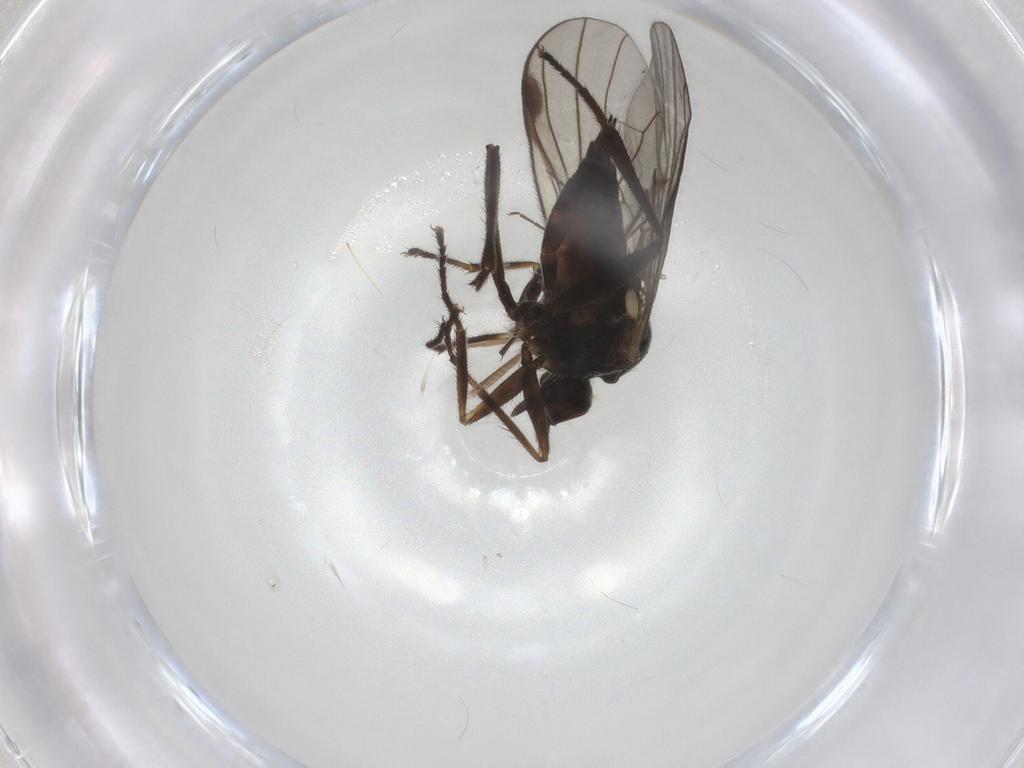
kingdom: Animalia
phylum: Arthropoda
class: Insecta
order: Diptera
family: Hybotidae
